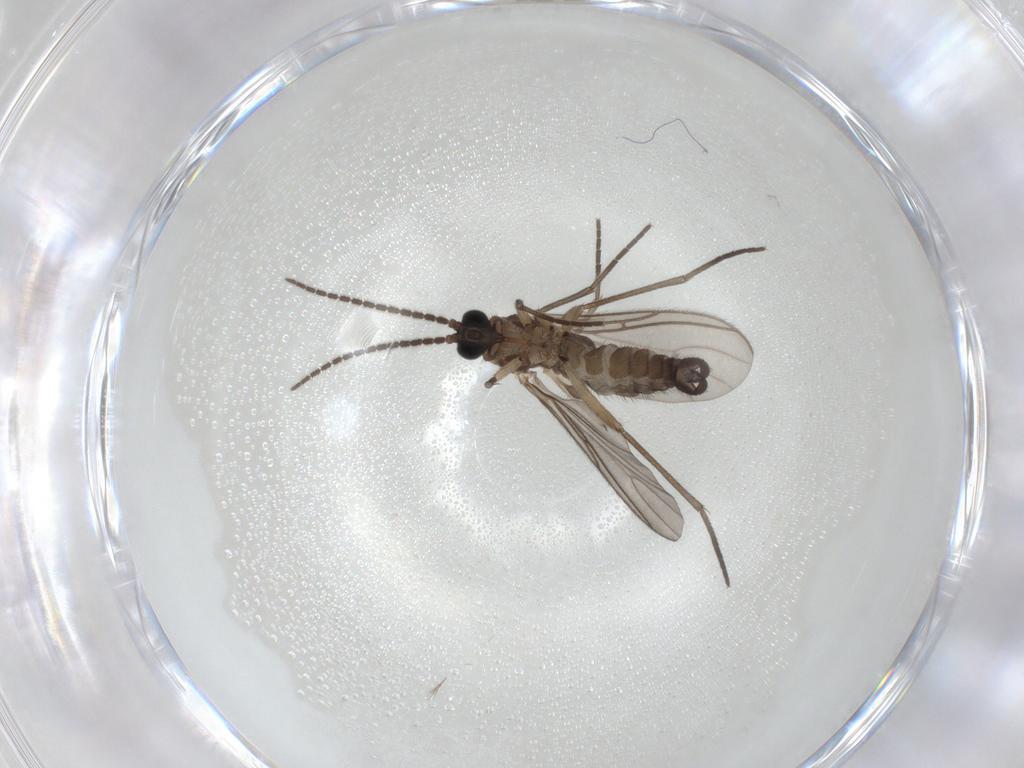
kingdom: Animalia
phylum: Arthropoda
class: Insecta
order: Diptera
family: Sciaridae
